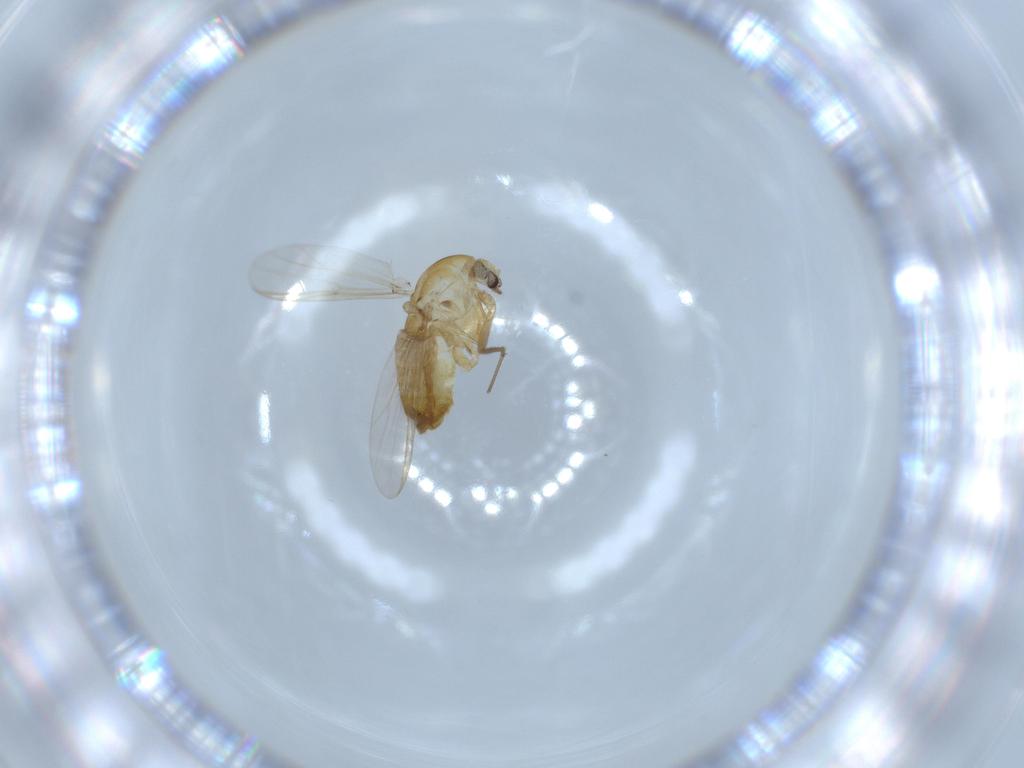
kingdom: Animalia
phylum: Arthropoda
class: Insecta
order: Diptera
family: Chironomidae
